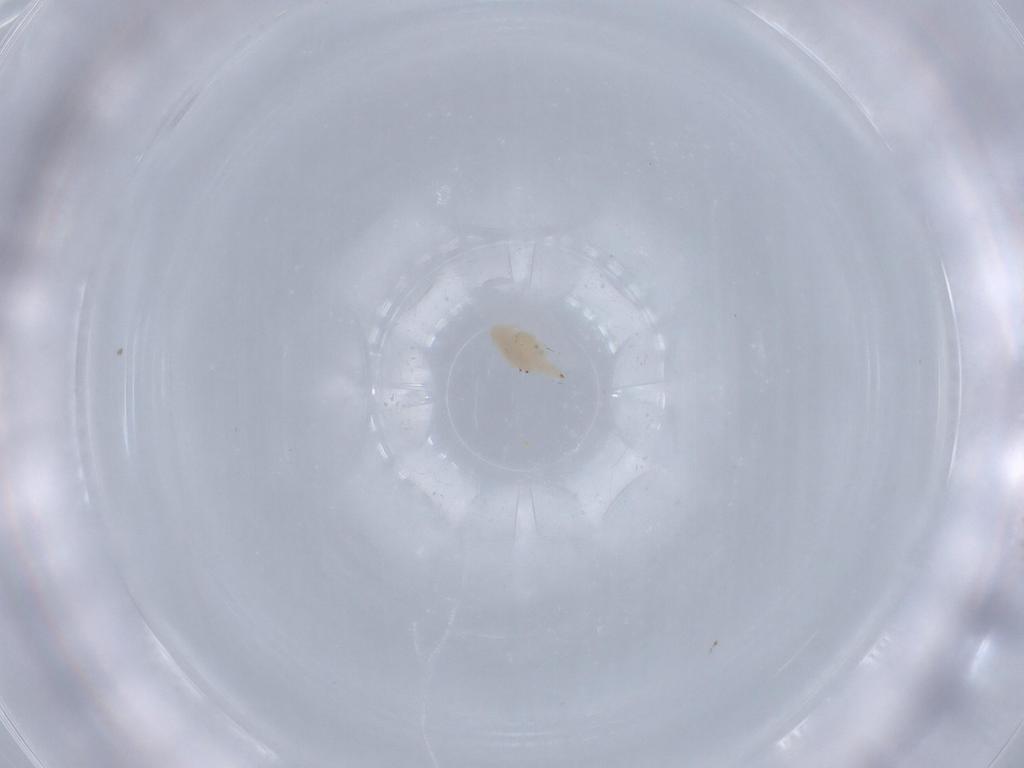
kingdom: Animalia
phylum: Arthropoda
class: Arachnida
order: Trombidiformes
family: Bdellidae
